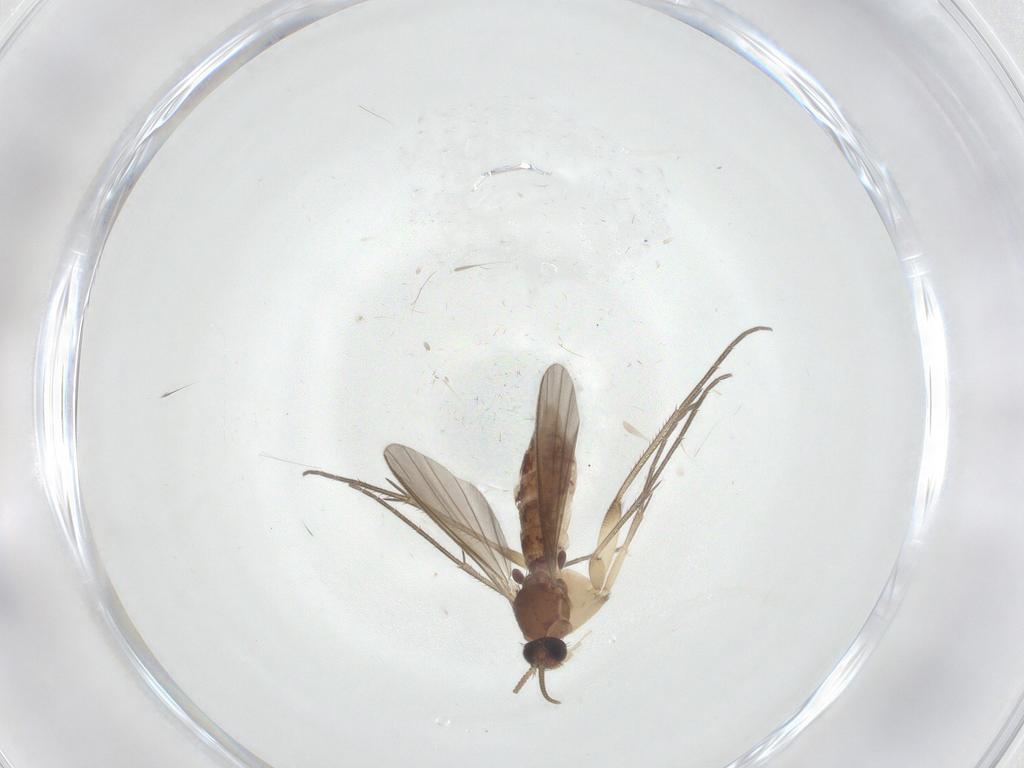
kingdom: Animalia
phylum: Arthropoda
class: Insecta
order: Diptera
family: Mycetophilidae
